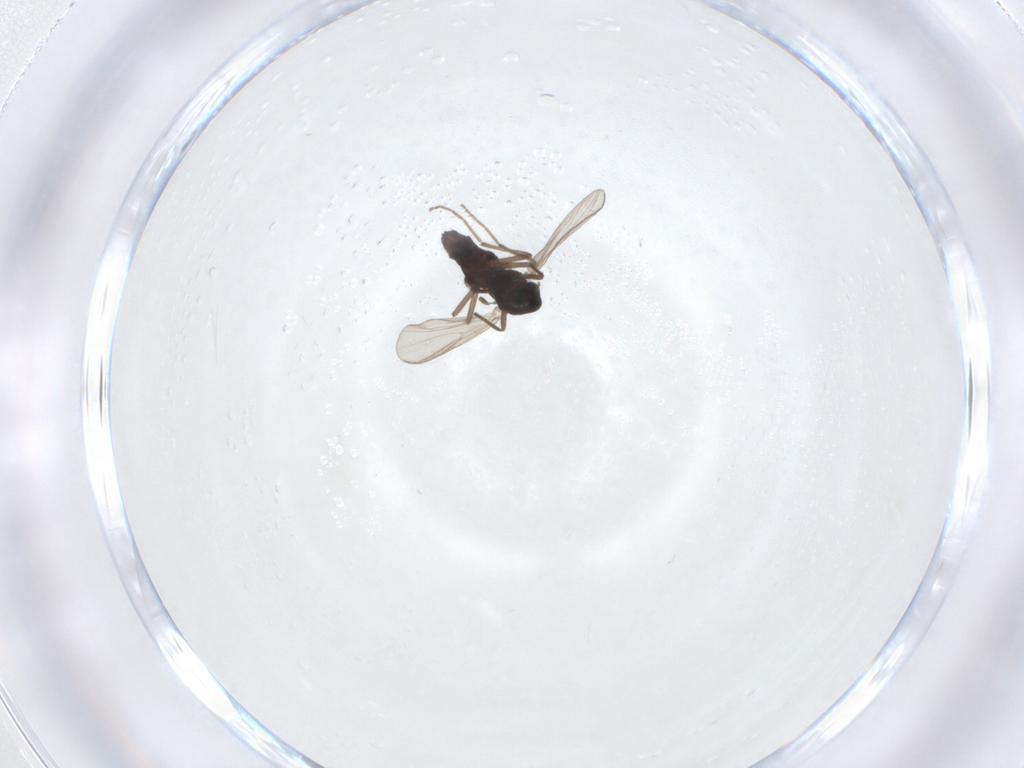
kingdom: Animalia
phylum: Arthropoda
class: Insecta
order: Diptera
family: Chironomidae
